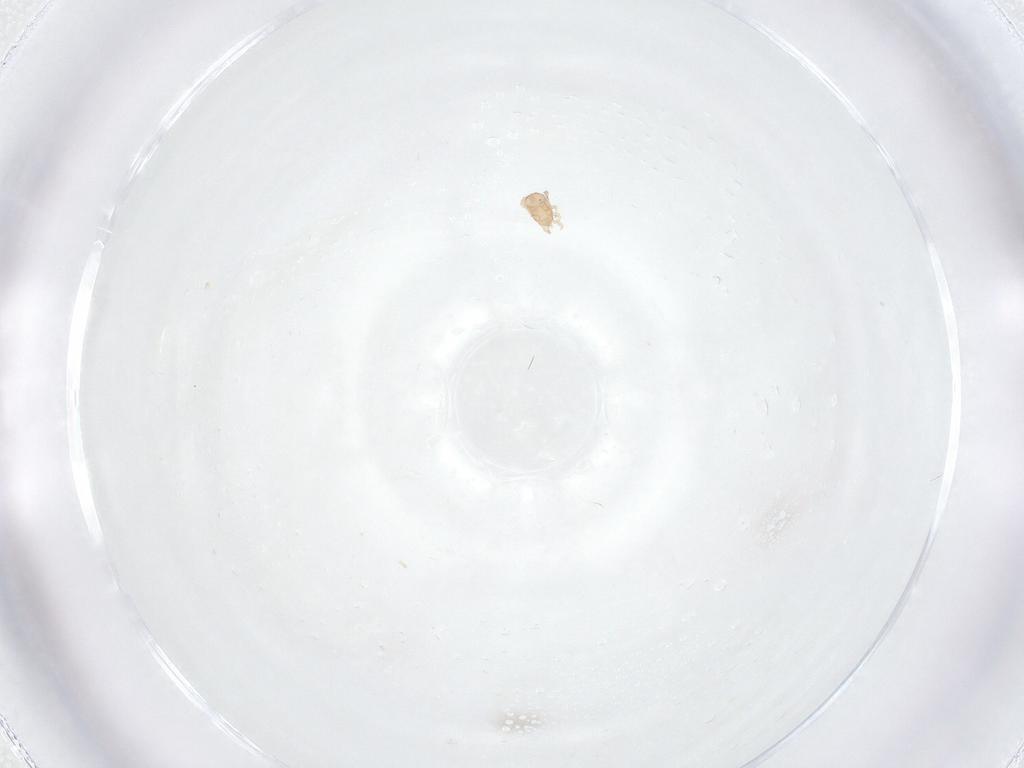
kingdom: Animalia
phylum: Arthropoda
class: Arachnida
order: Mesostigmata
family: Ascidae
